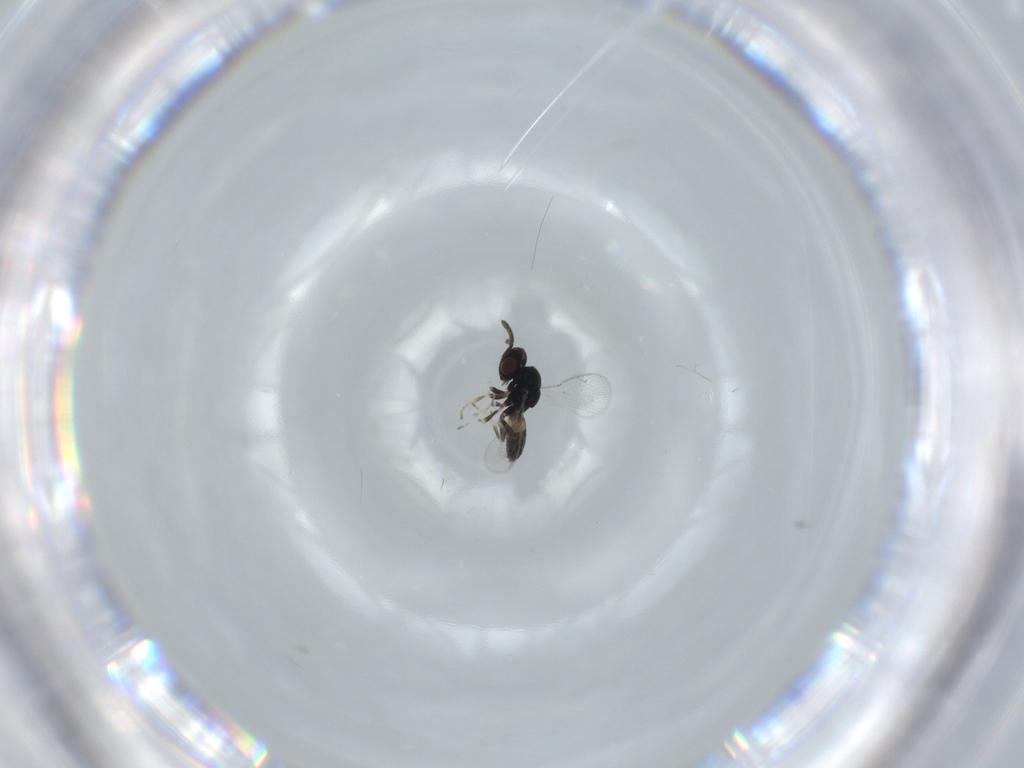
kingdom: Animalia
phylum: Arthropoda
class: Insecta
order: Hymenoptera
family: Pteromalidae
